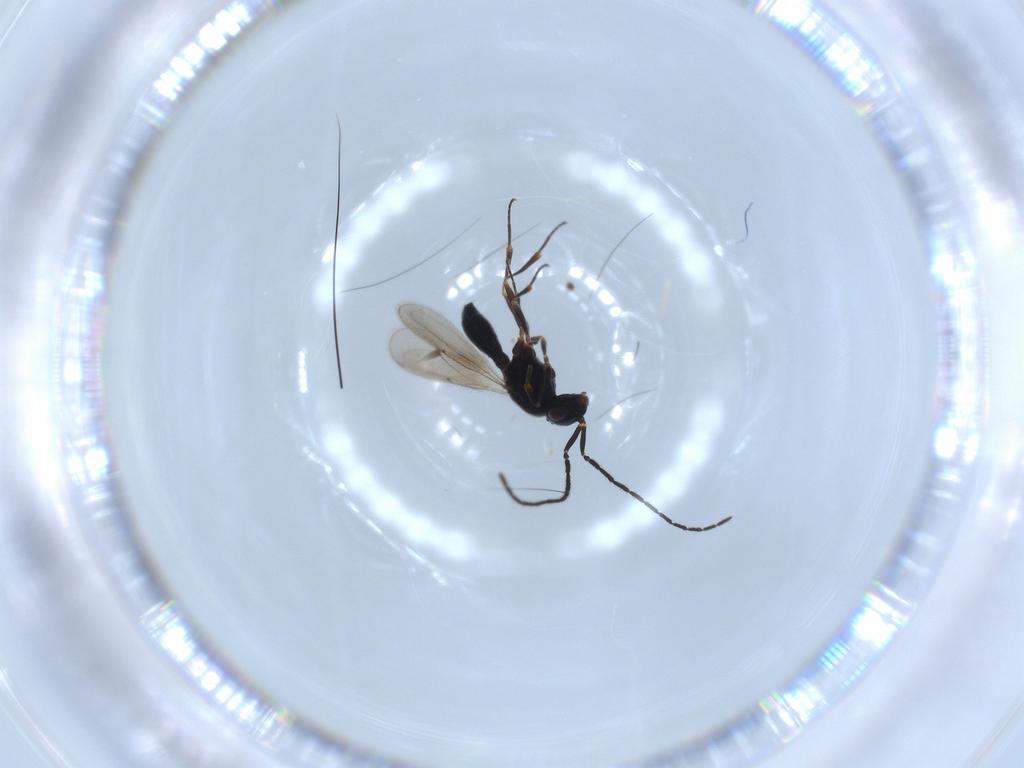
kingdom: Animalia
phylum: Arthropoda
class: Insecta
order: Hymenoptera
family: Scelionidae
